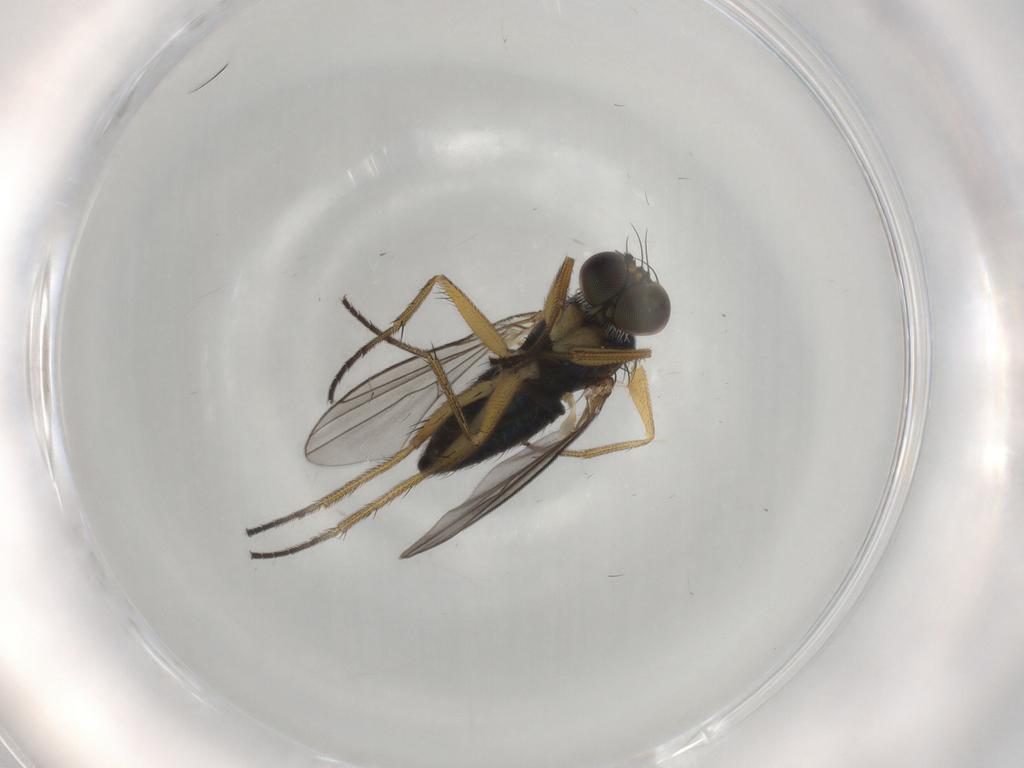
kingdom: Animalia
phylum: Arthropoda
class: Insecta
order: Diptera
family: Dolichopodidae
